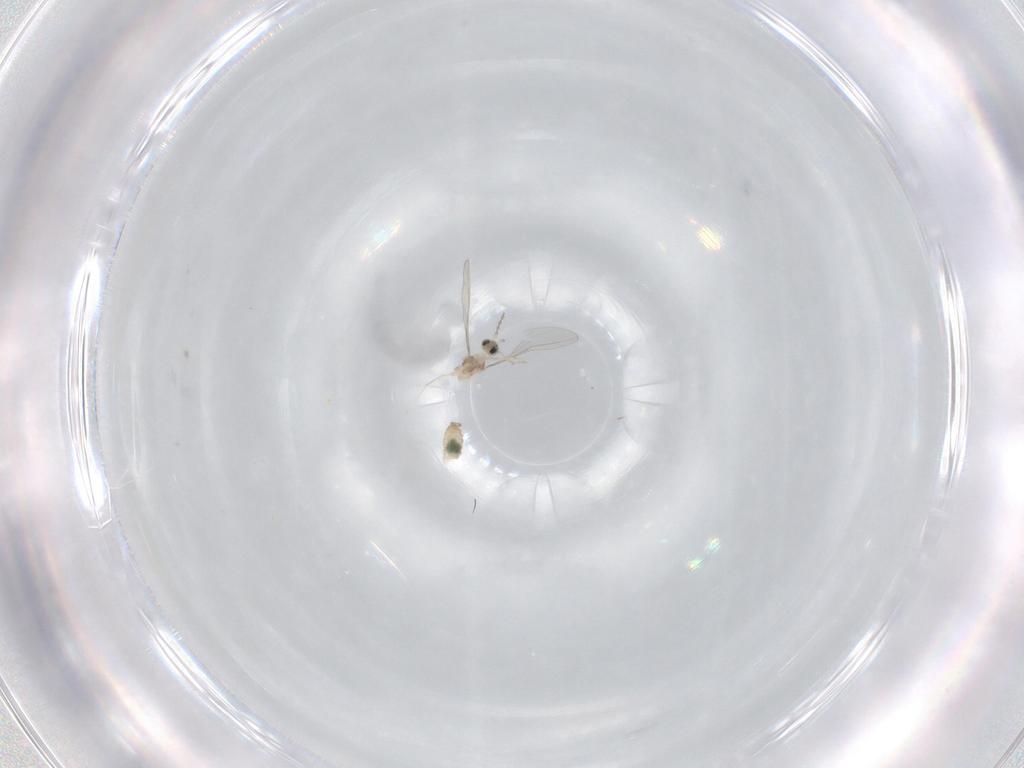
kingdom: Animalia
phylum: Arthropoda
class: Insecta
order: Diptera
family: Cecidomyiidae
